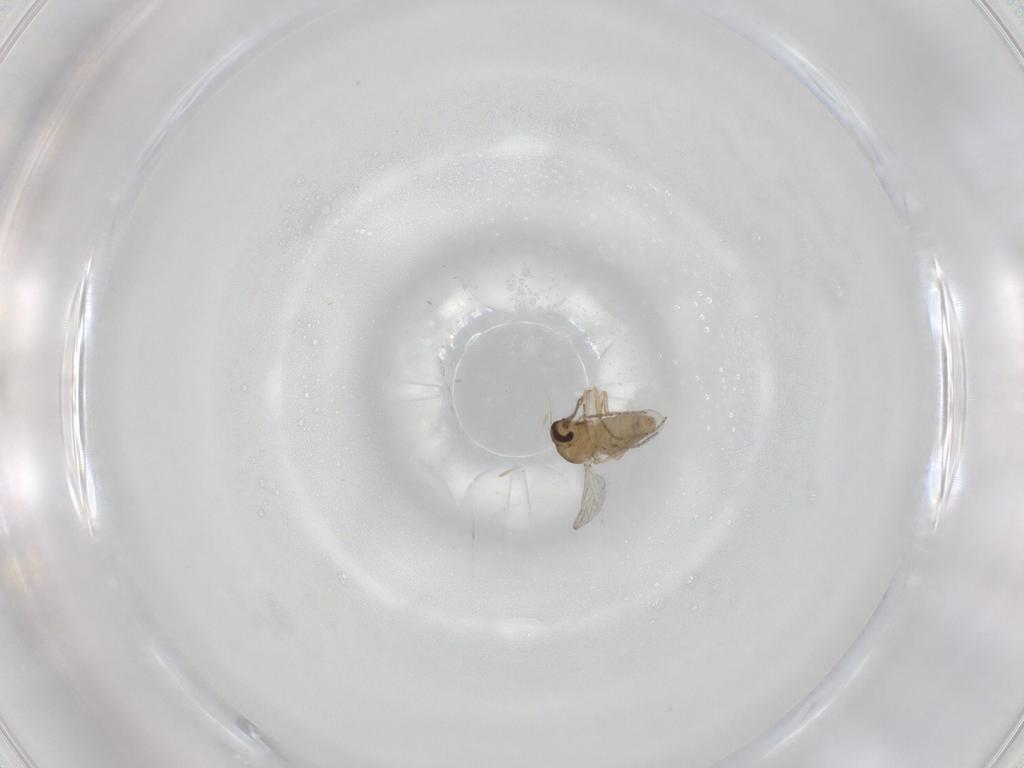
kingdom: Animalia
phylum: Arthropoda
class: Insecta
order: Diptera
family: Ceratopogonidae
